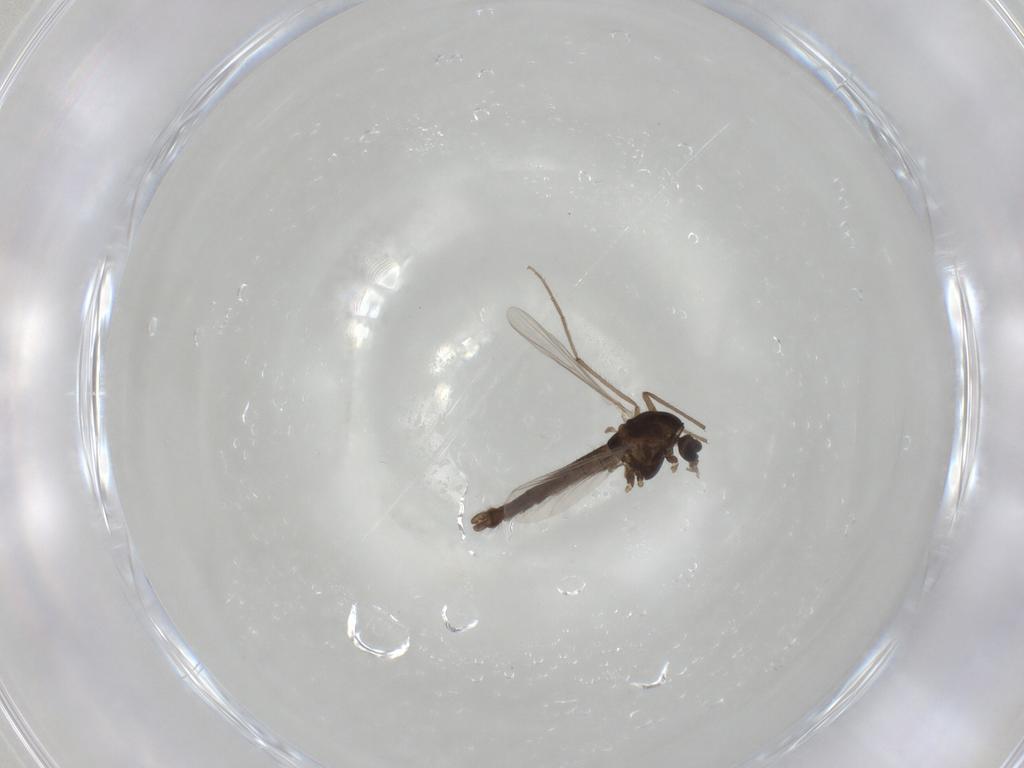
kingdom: Animalia
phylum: Arthropoda
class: Insecta
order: Diptera
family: Chironomidae
